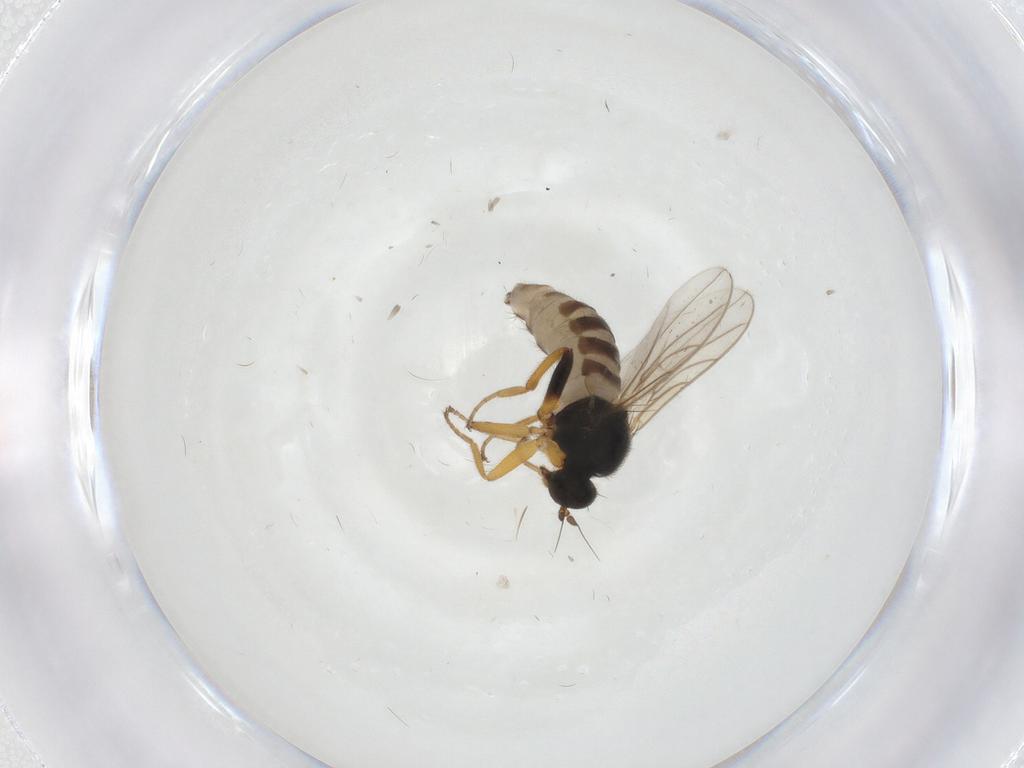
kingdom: Animalia
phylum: Arthropoda
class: Insecta
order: Diptera
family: Hybotidae
